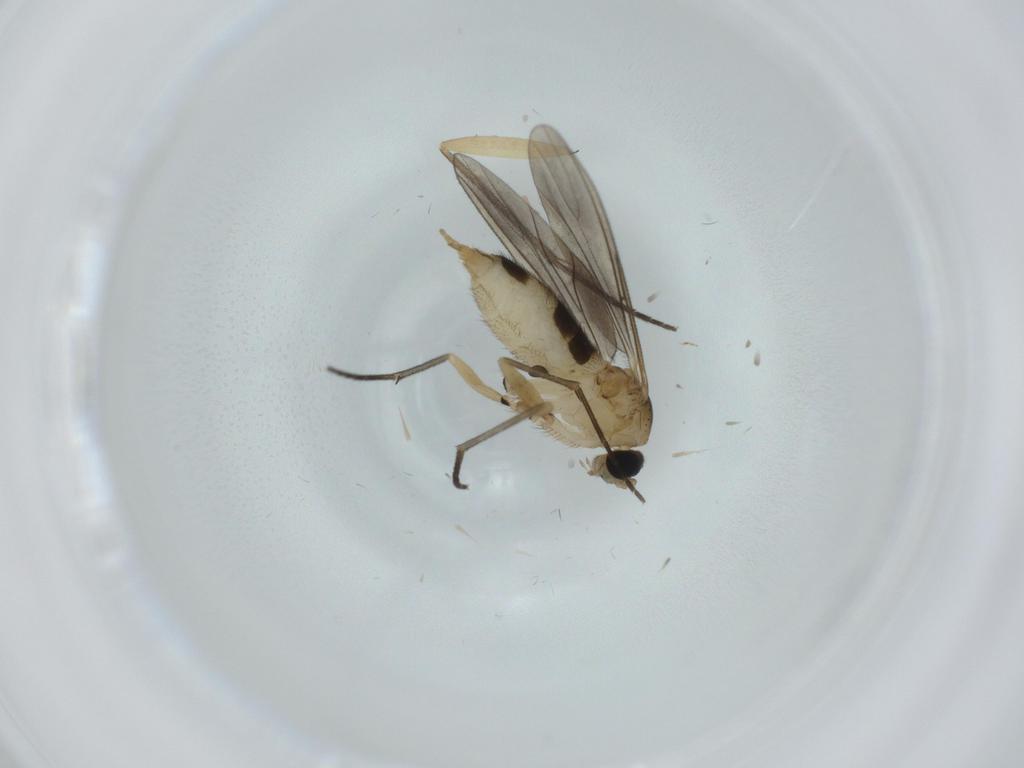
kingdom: Animalia
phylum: Arthropoda
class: Insecta
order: Diptera
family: Sciaridae
